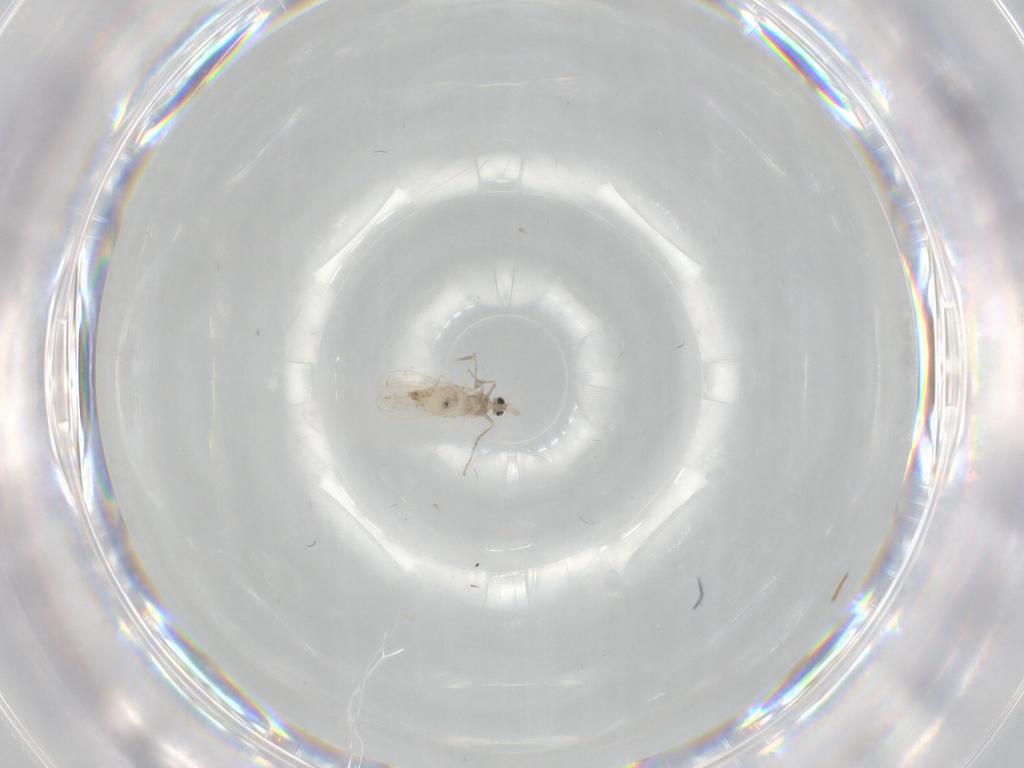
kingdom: Animalia
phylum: Arthropoda
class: Insecta
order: Diptera
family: Cecidomyiidae
